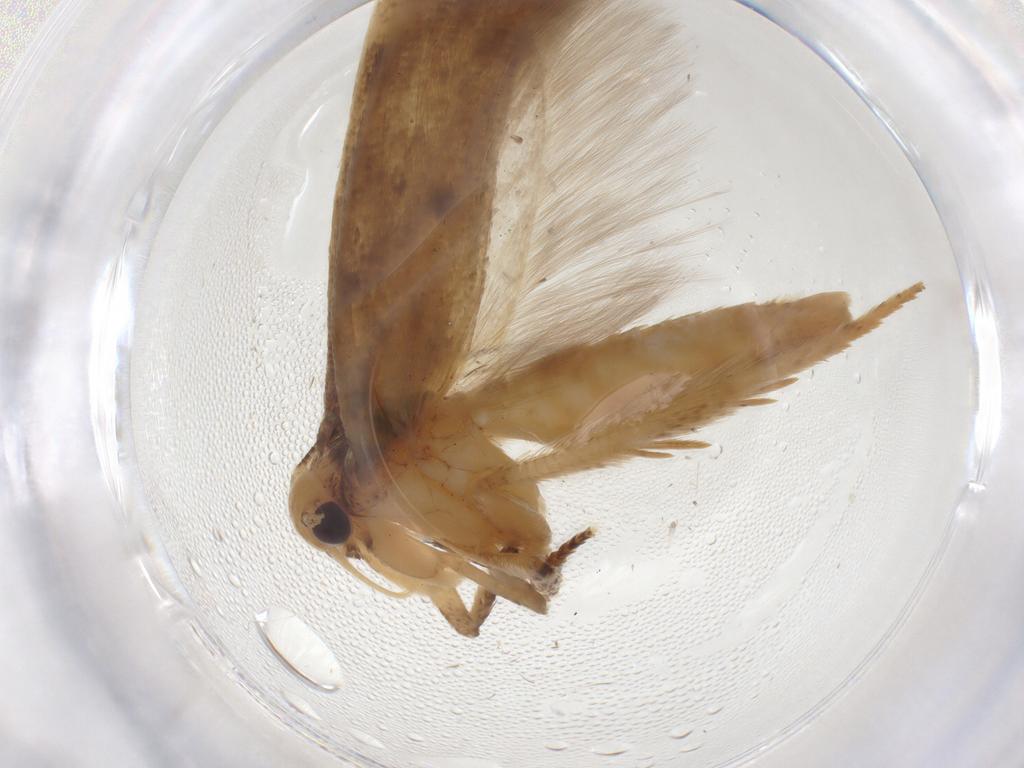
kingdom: Animalia
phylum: Arthropoda
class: Insecta
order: Lepidoptera
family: Gelechiidae
